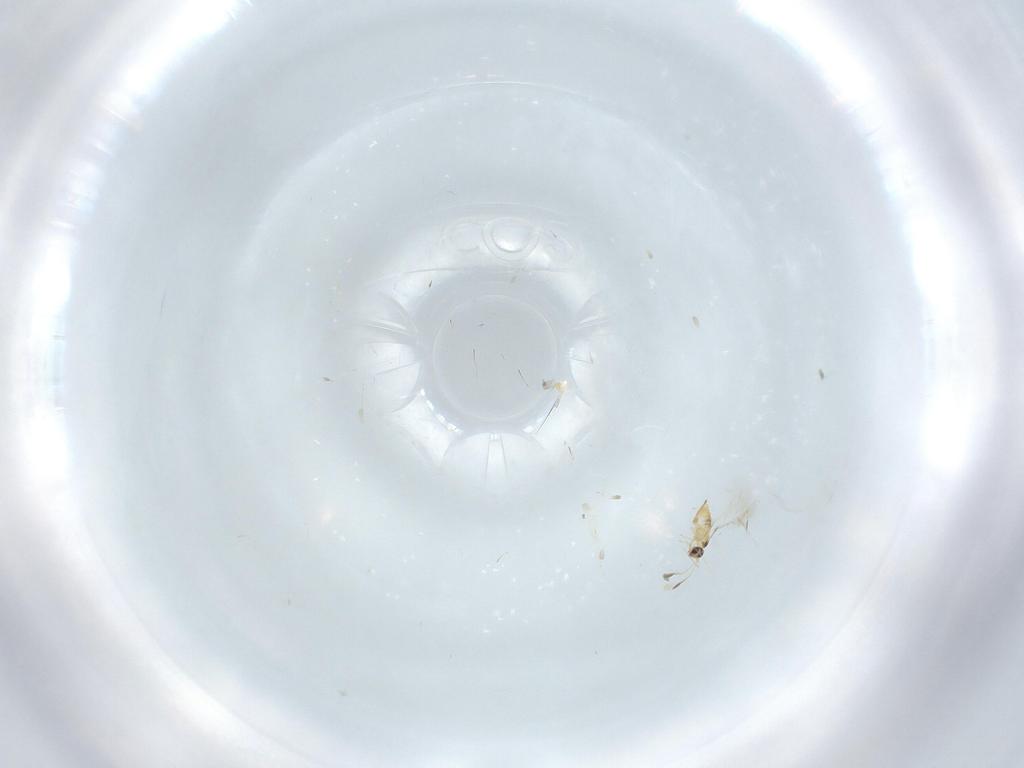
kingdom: Animalia
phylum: Arthropoda
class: Insecta
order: Hymenoptera
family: Mymaridae
